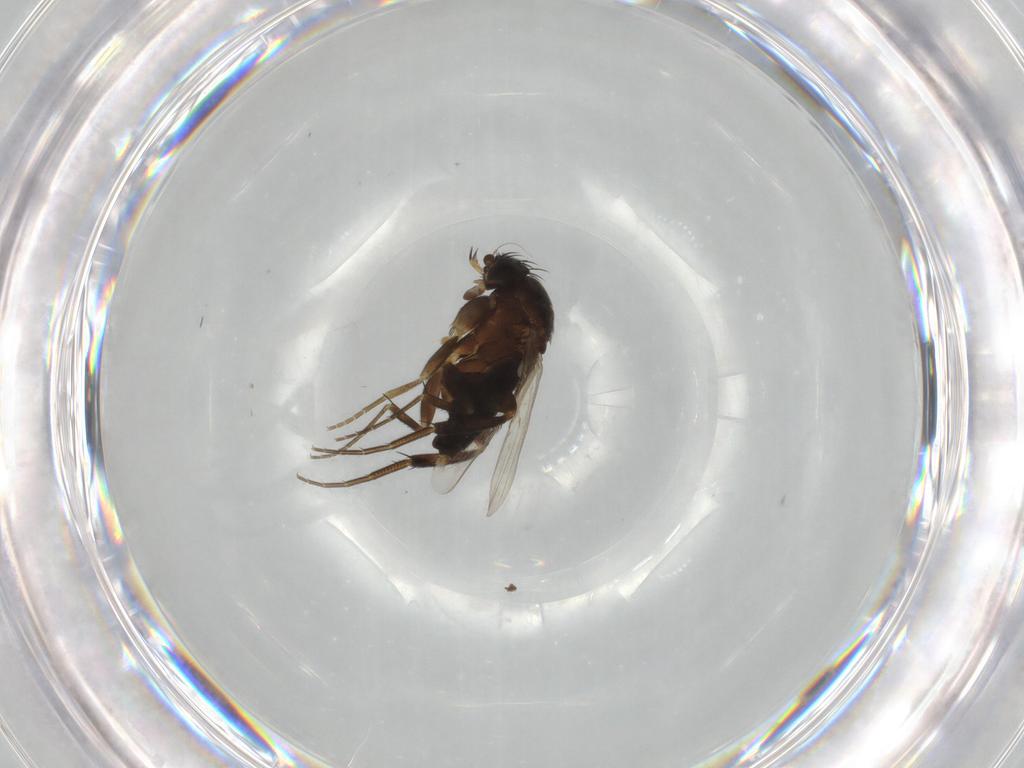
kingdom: Animalia
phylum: Arthropoda
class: Insecta
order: Diptera
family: Phoridae
